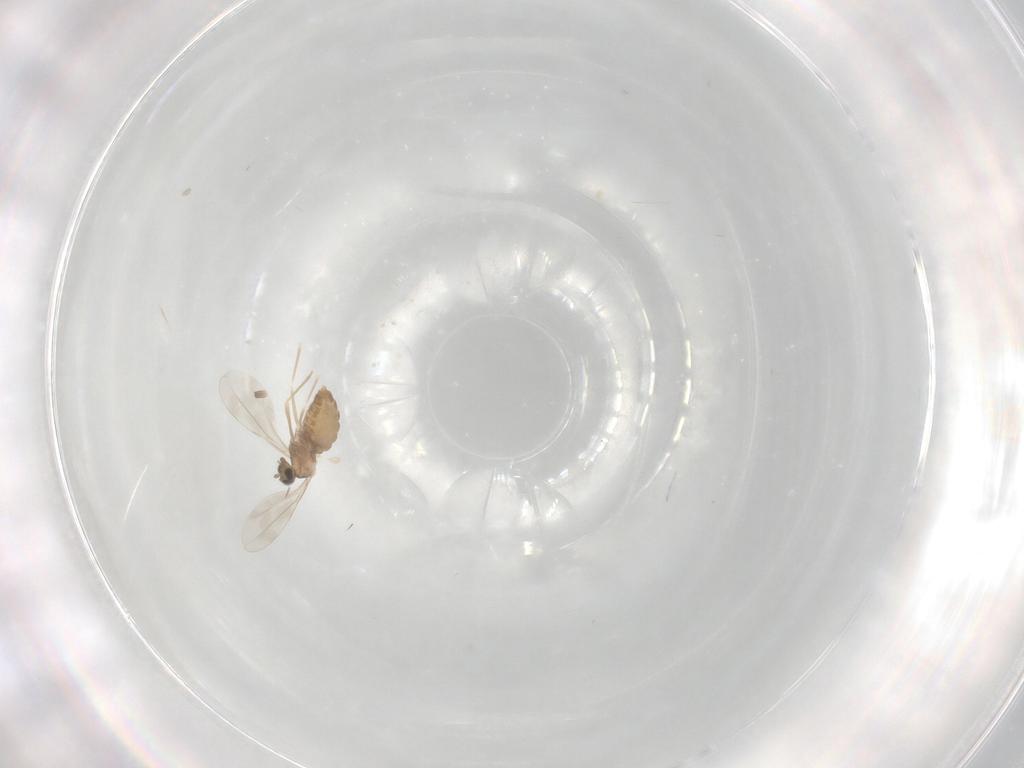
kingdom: Animalia
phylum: Arthropoda
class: Insecta
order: Diptera
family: Cecidomyiidae
